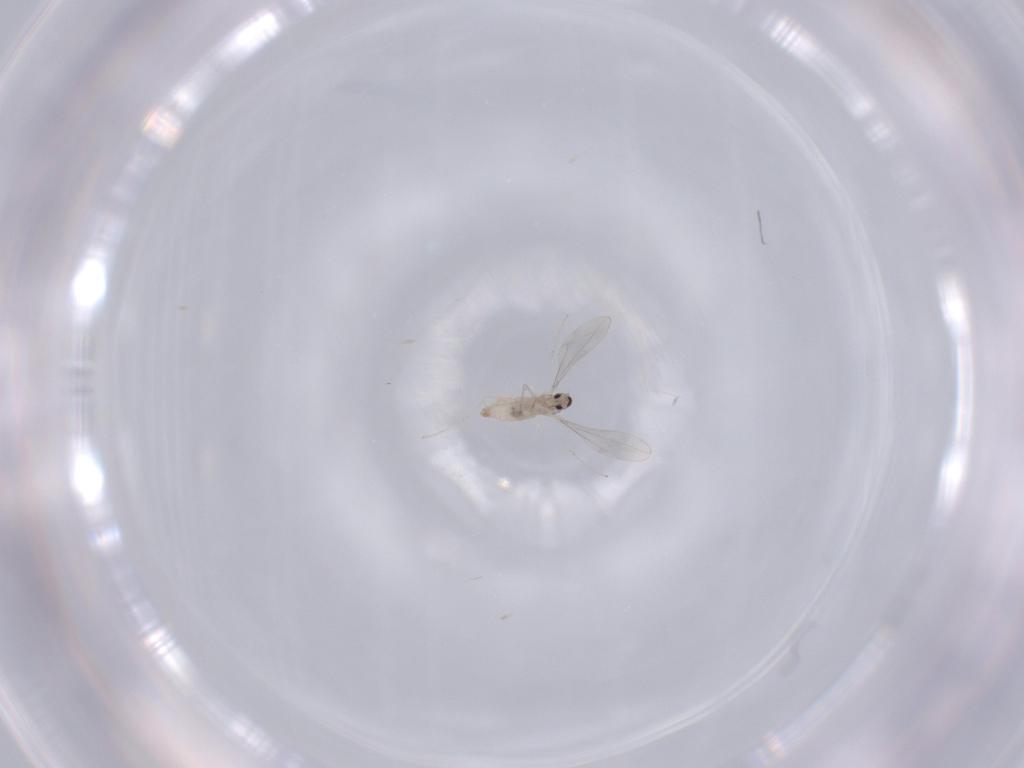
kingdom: Animalia
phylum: Arthropoda
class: Insecta
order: Diptera
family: Cecidomyiidae
